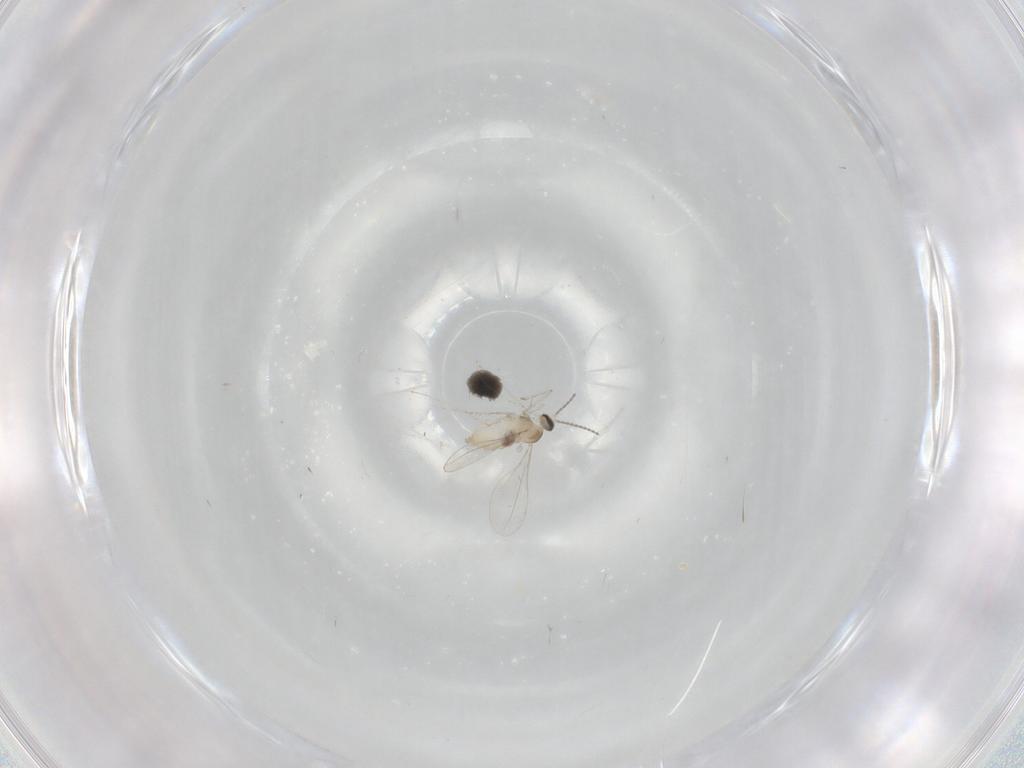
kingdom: Animalia
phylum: Arthropoda
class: Insecta
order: Diptera
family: Cecidomyiidae
